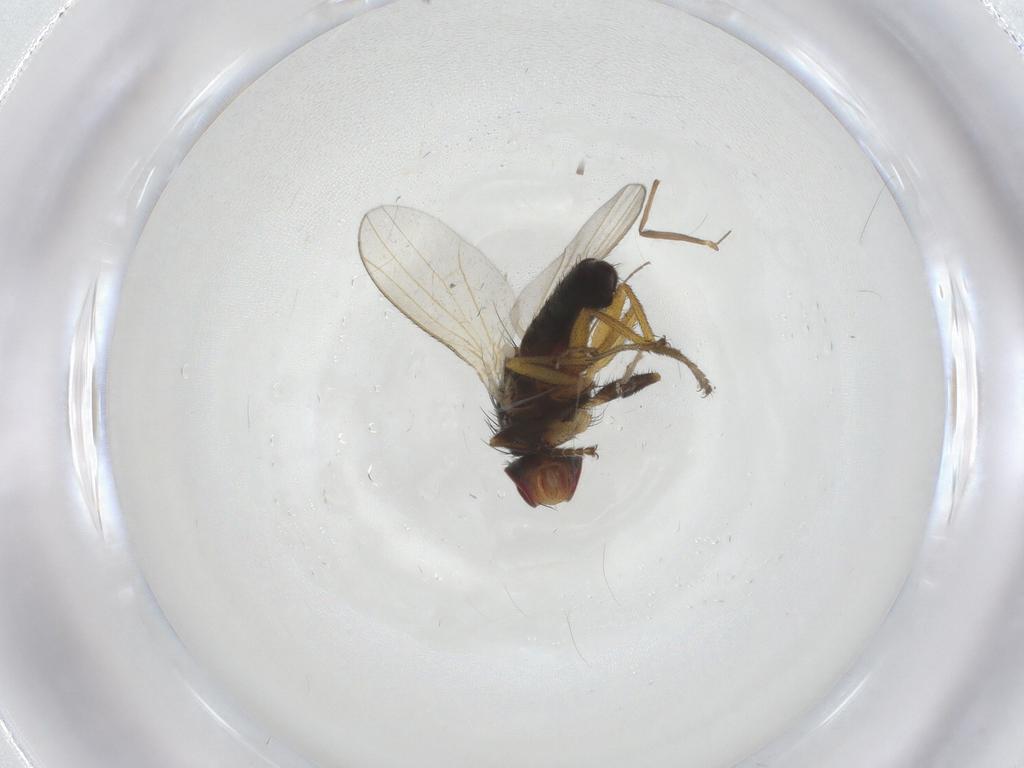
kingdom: Animalia
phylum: Arthropoda
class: Insecta
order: Diptera
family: Heleomyzidae
